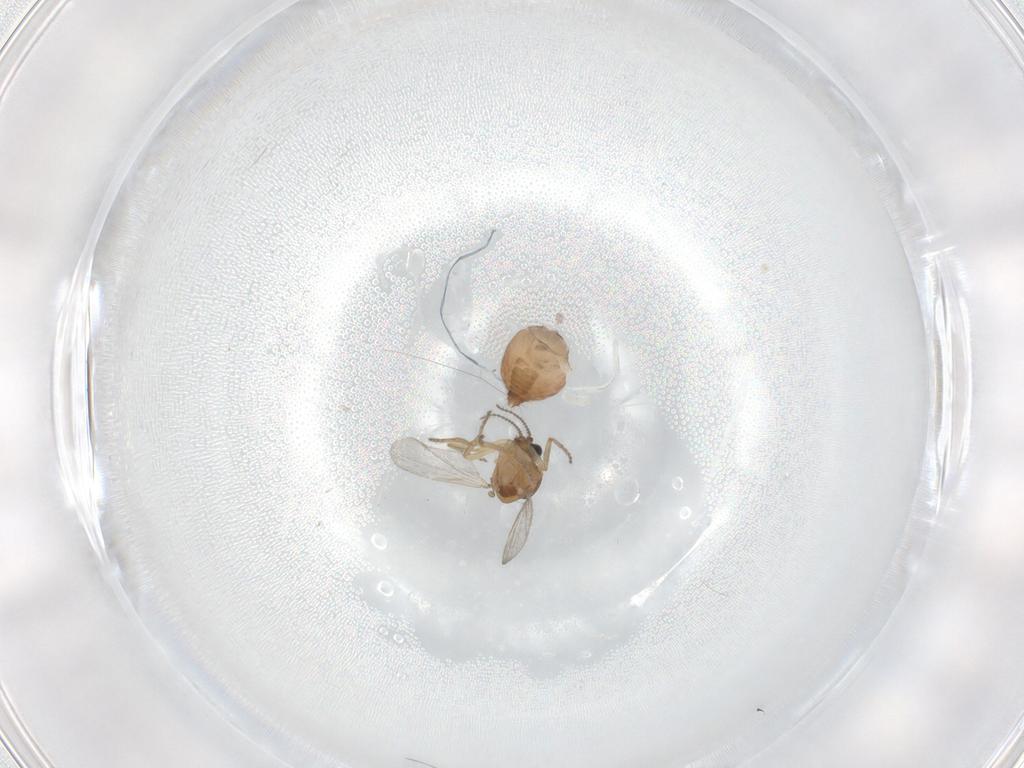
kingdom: Animalia
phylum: Arthropoda
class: Insecta
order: Diptera
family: Ceratopogonidae
